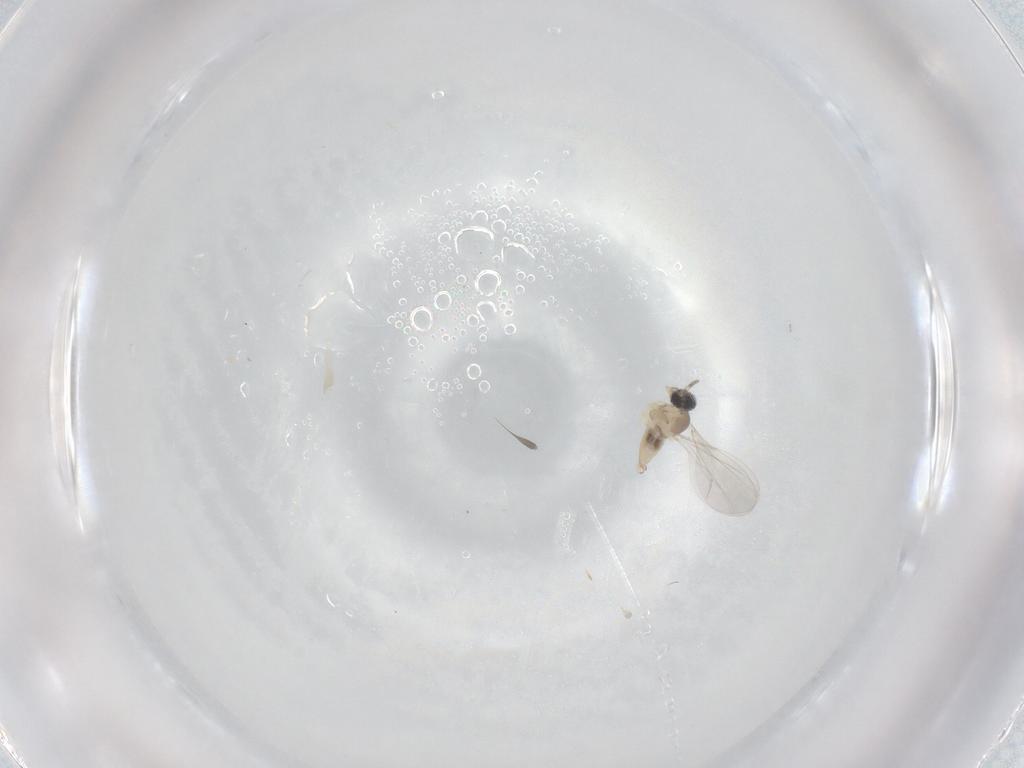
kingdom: Animalia
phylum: Arthropoda
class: Insecta
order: Diptera
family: Cecidomyiidae
